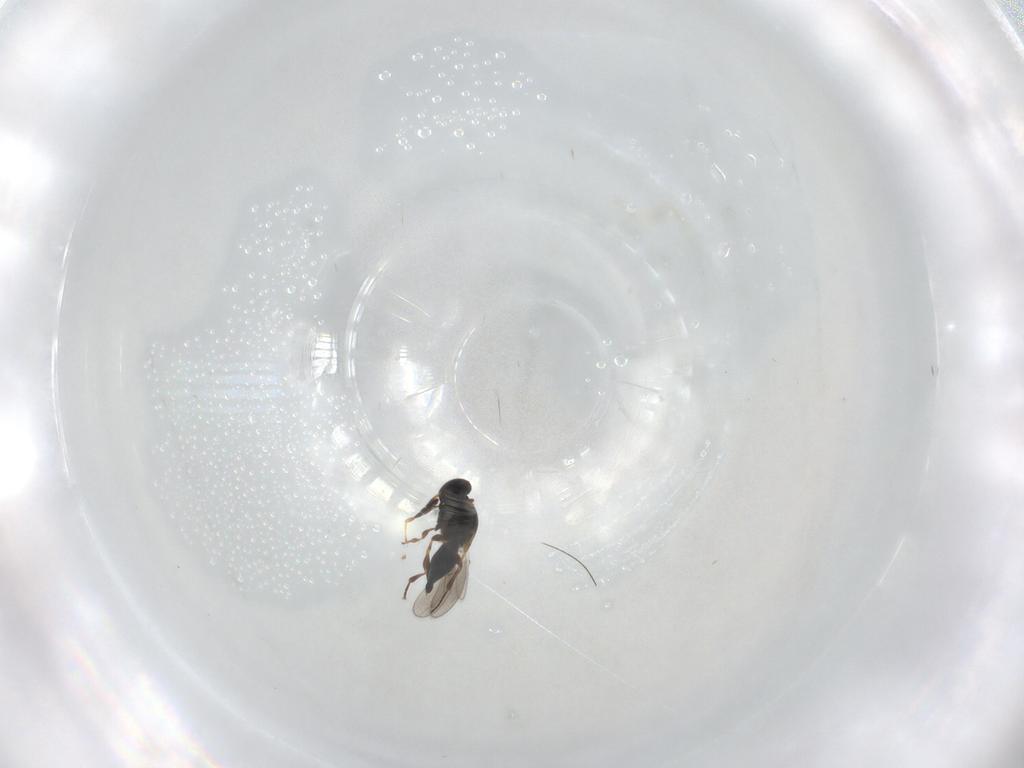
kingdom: Animalia
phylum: Arthropoda
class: Insecta
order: Hymenoptera
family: Platygastridae
